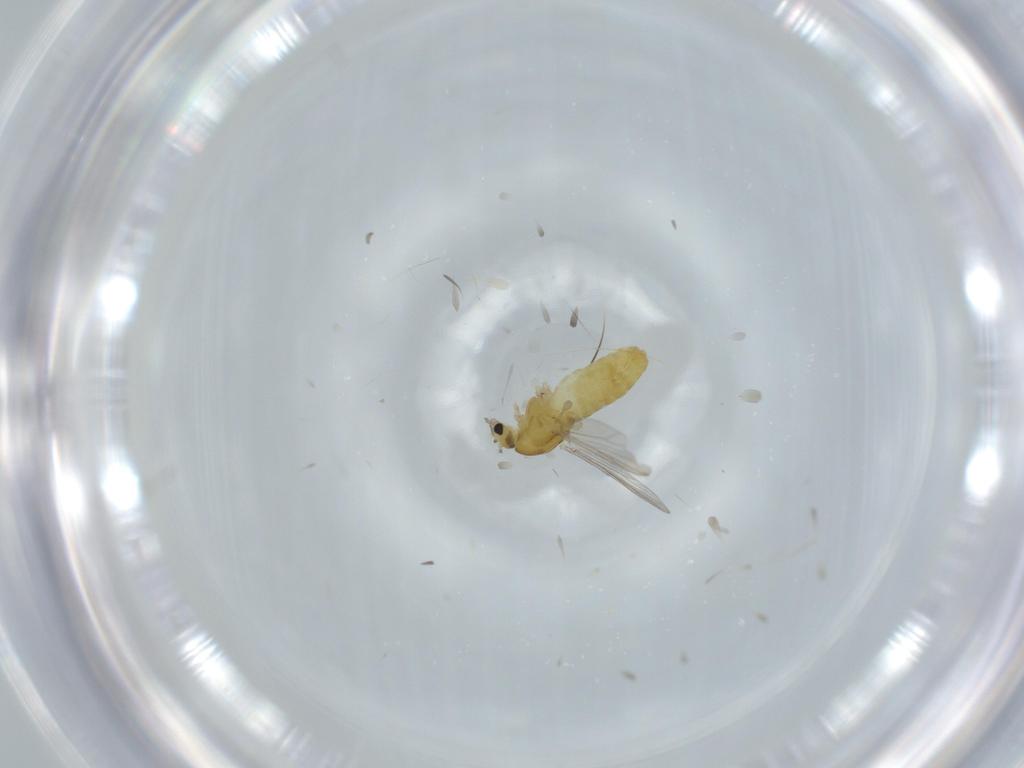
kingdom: Animalia
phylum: Arthropoda
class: Insecta
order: Diptera
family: Chironomidae
